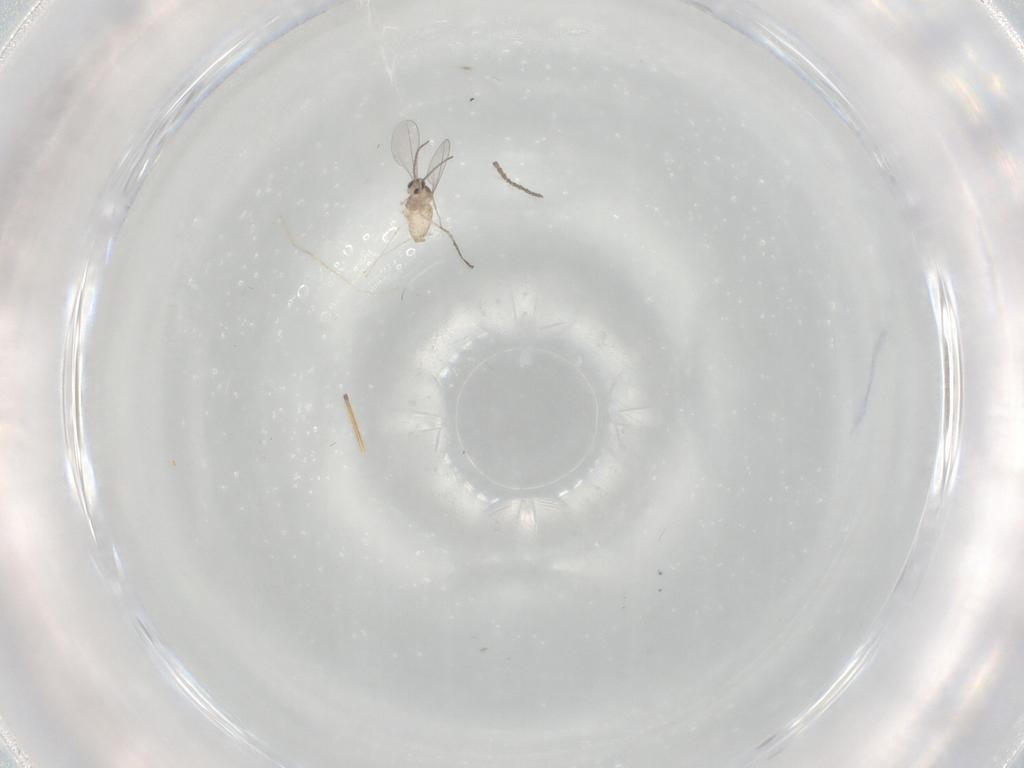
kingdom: Animalia
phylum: Arthropoda
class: Insecta
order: Diptera
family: Cecidomyiidae
